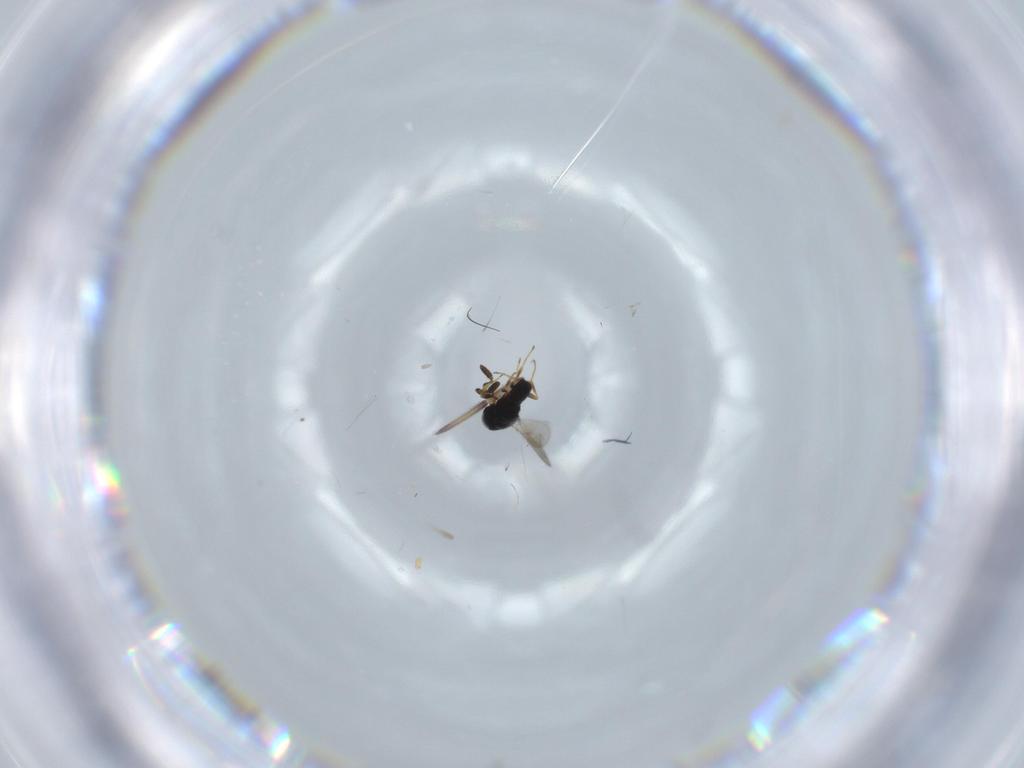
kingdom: Animalia
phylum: Arthropoda
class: Insecta
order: Hymenoptera
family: Scelionidae
